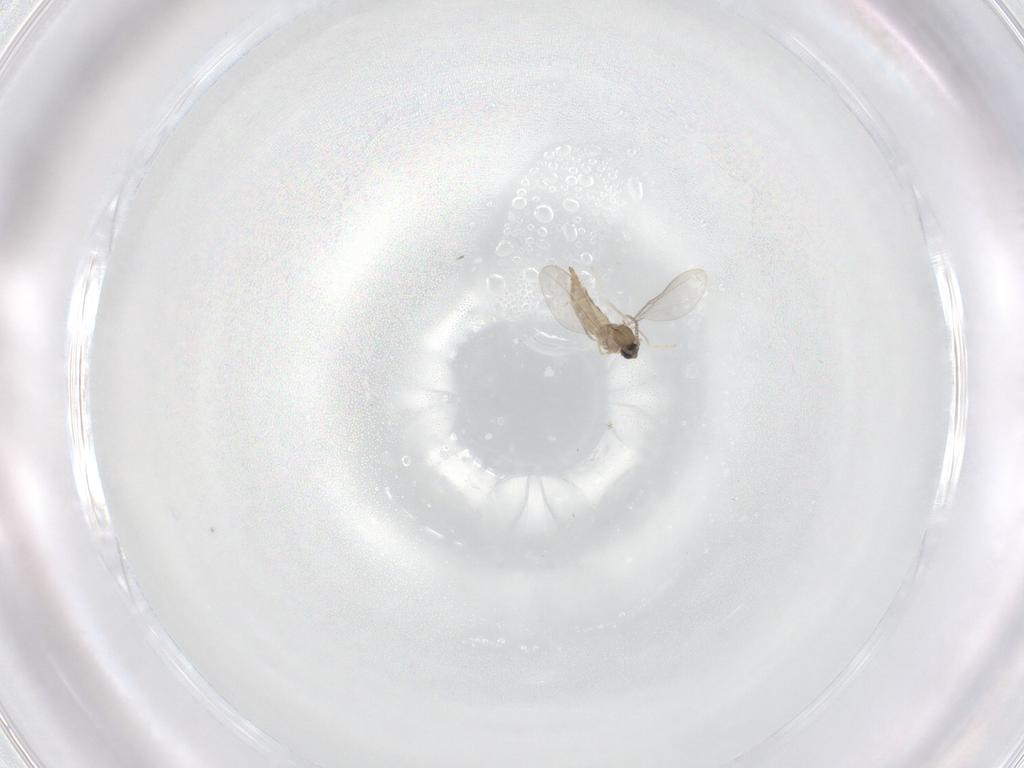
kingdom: Animalia
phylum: Arthropoda
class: Insecta
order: Diptera
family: Cecidomyiidae
